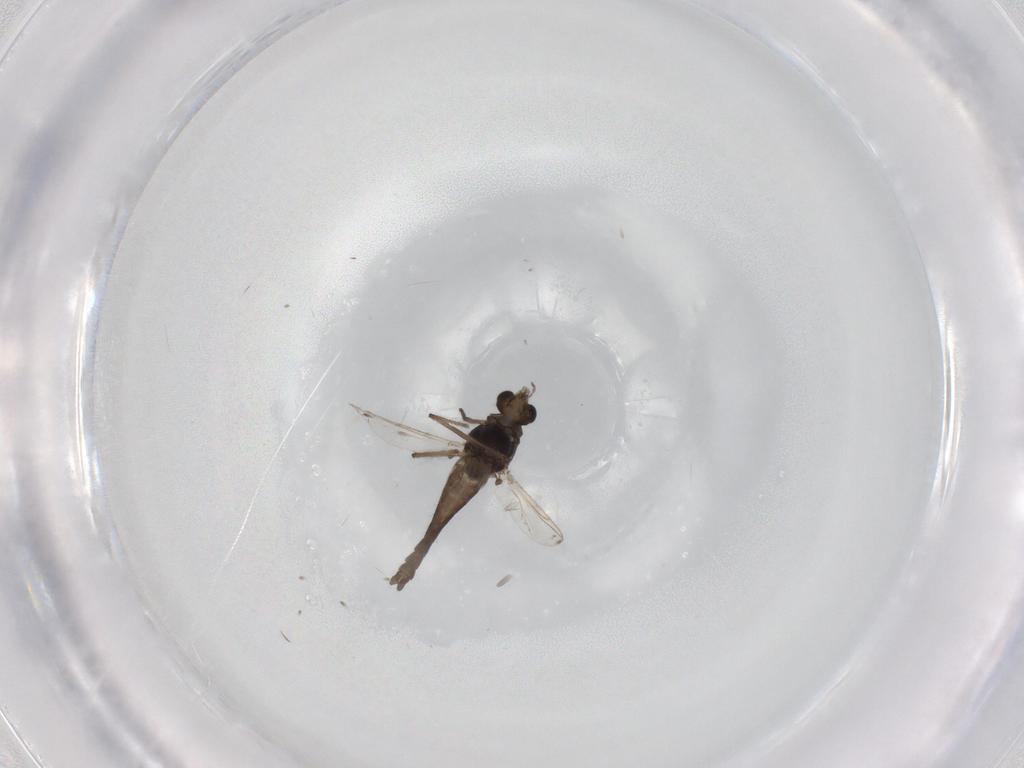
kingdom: Animalia
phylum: Arthropoda
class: Insecta
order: Diptera
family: Chironomidae
